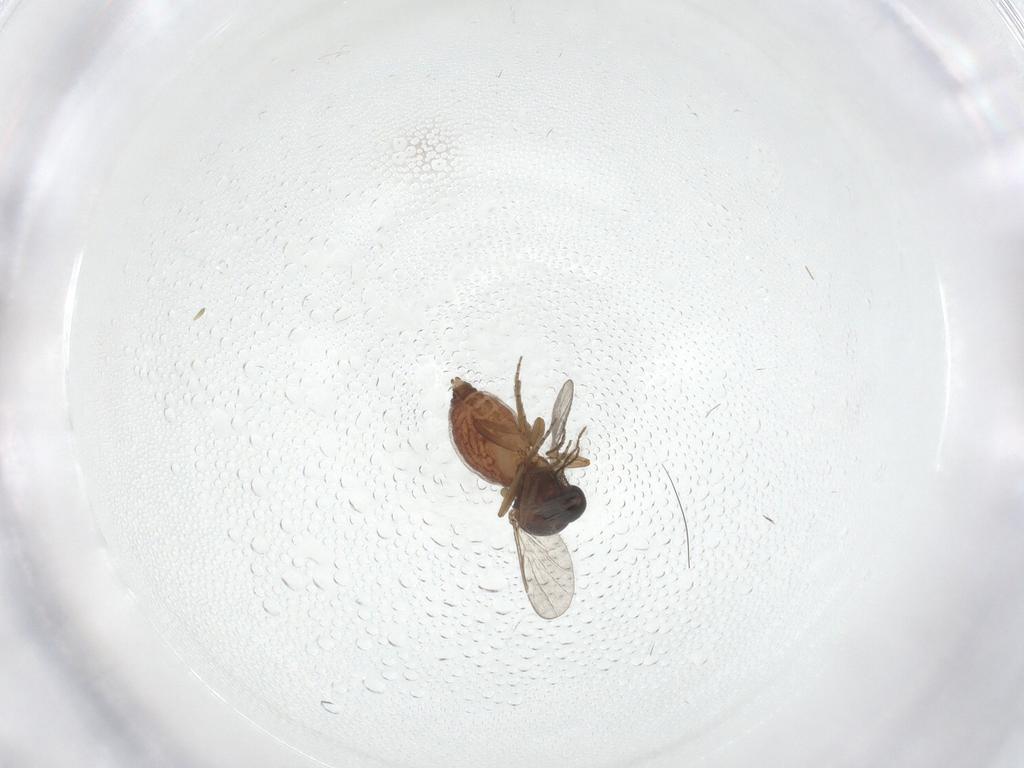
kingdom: Animalia
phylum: Arthropoda
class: Insecta
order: Diptera
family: Ceratopogonidae
